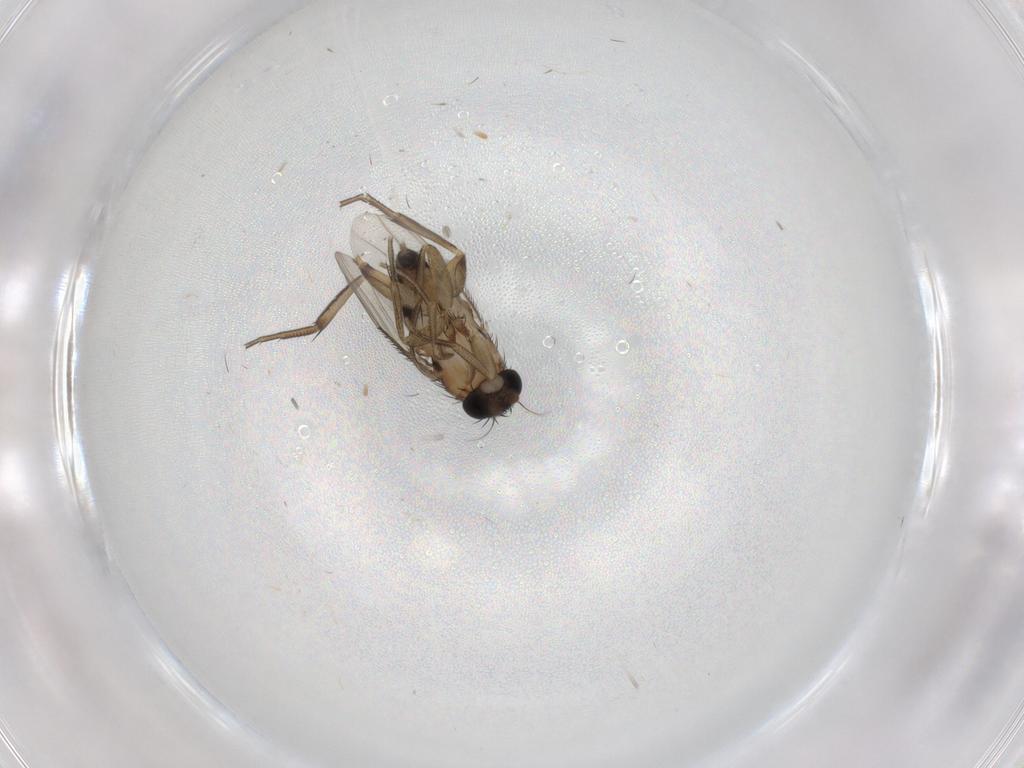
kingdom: Animalia
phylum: Arthropoda
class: Insecta
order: Diptera
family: Phoridae
